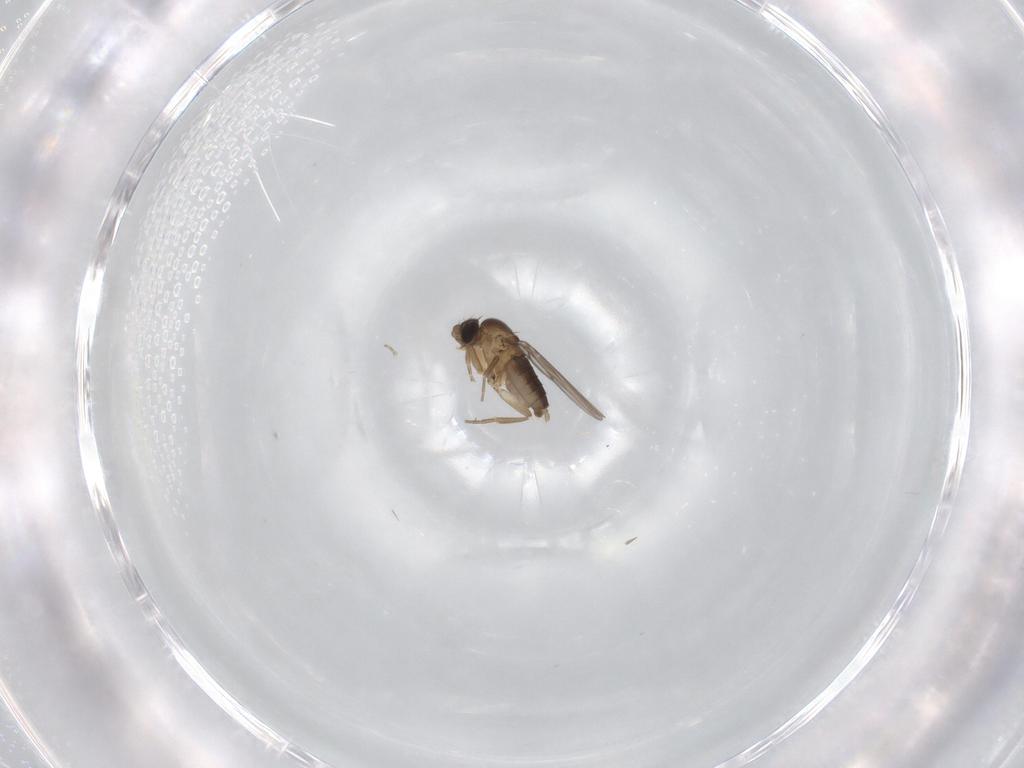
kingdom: Animalia
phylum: Arthropoda
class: Insecta
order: Diptera
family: Phoridae
